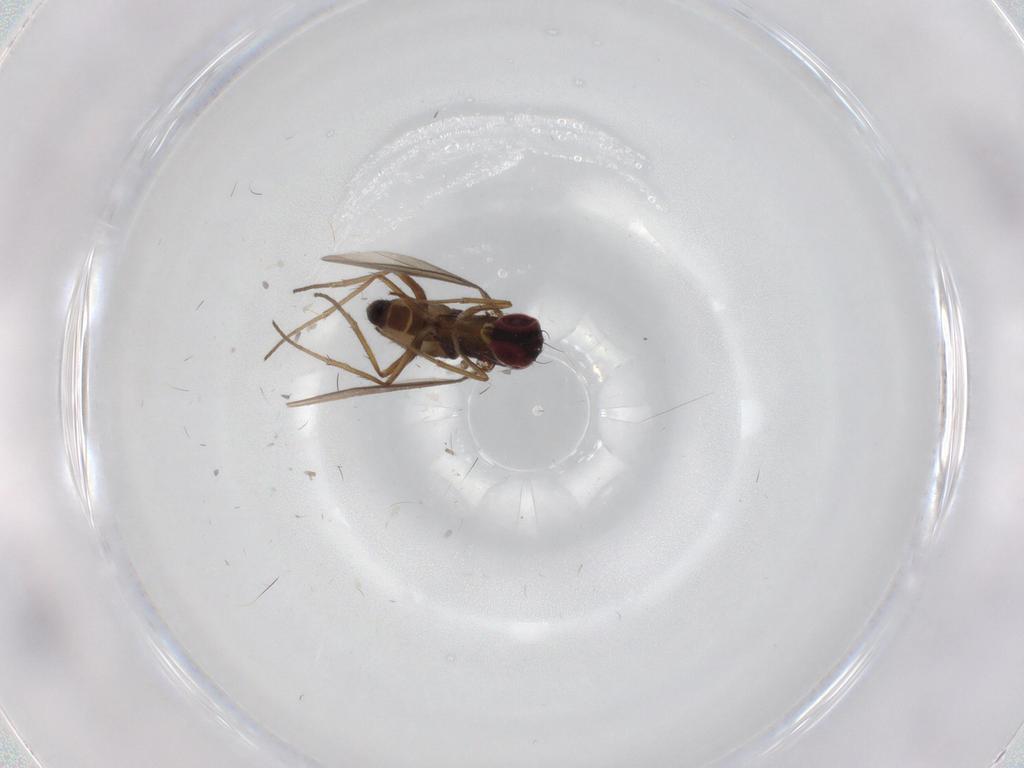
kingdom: Animalia
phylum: Arthropoda
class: Insecta
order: Diptera
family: Dolichopodidae
